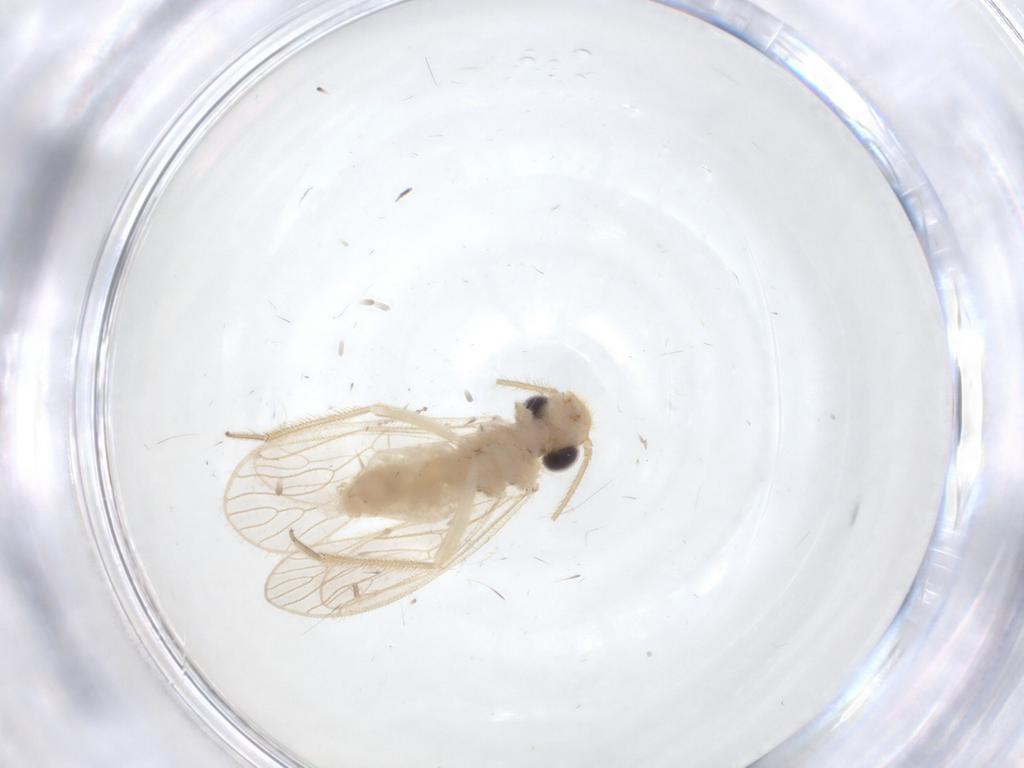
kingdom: Animalia
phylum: Arthropoda
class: Insecta
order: Psocodea
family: Cladiopsocidae
